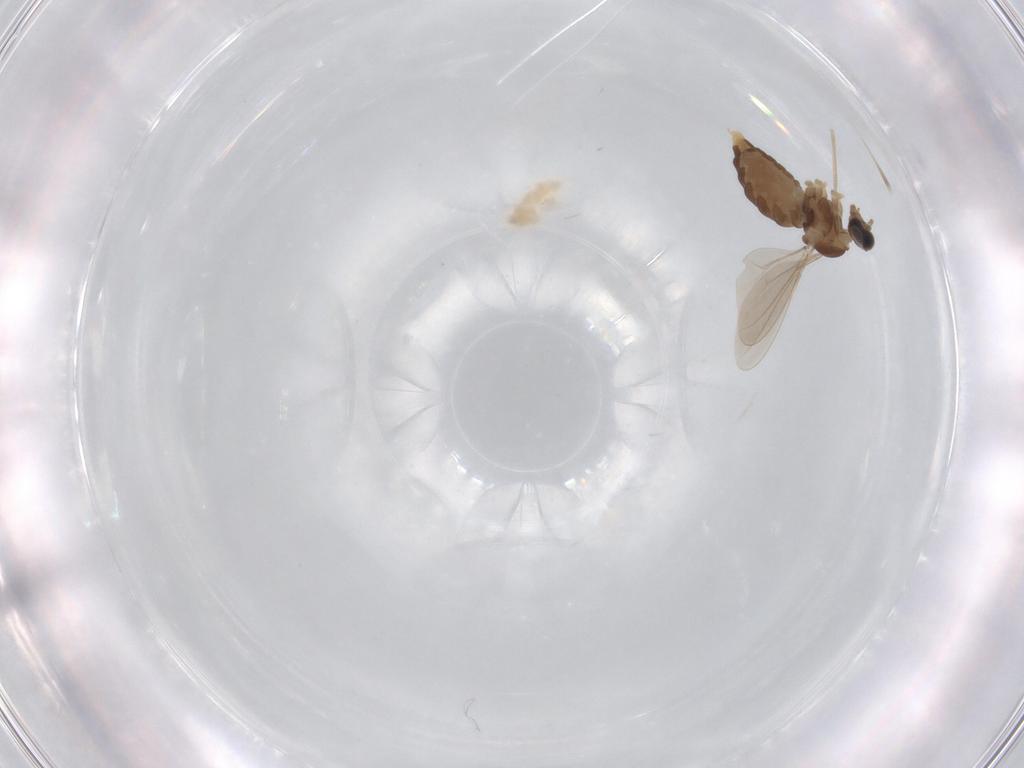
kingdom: Animalia
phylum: Arthropoda
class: Insecta
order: Diptera
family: Cecidomyiidae
